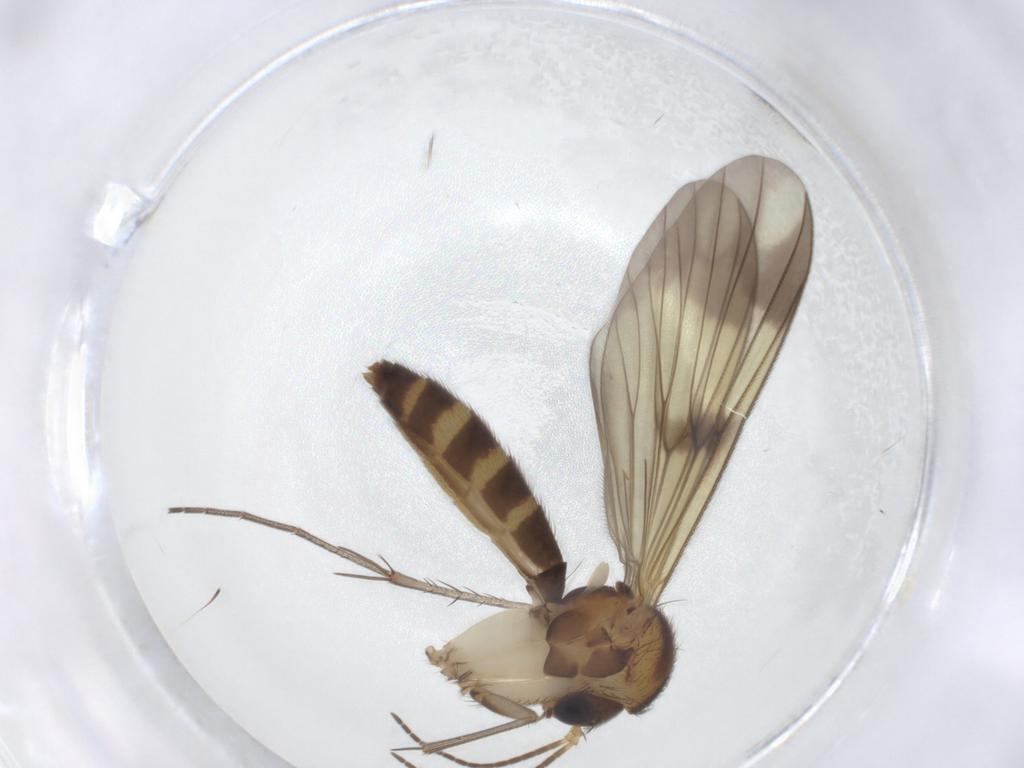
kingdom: Animalia
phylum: Arthropoda
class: Insecta
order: Diptera
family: Mycetophilidae
